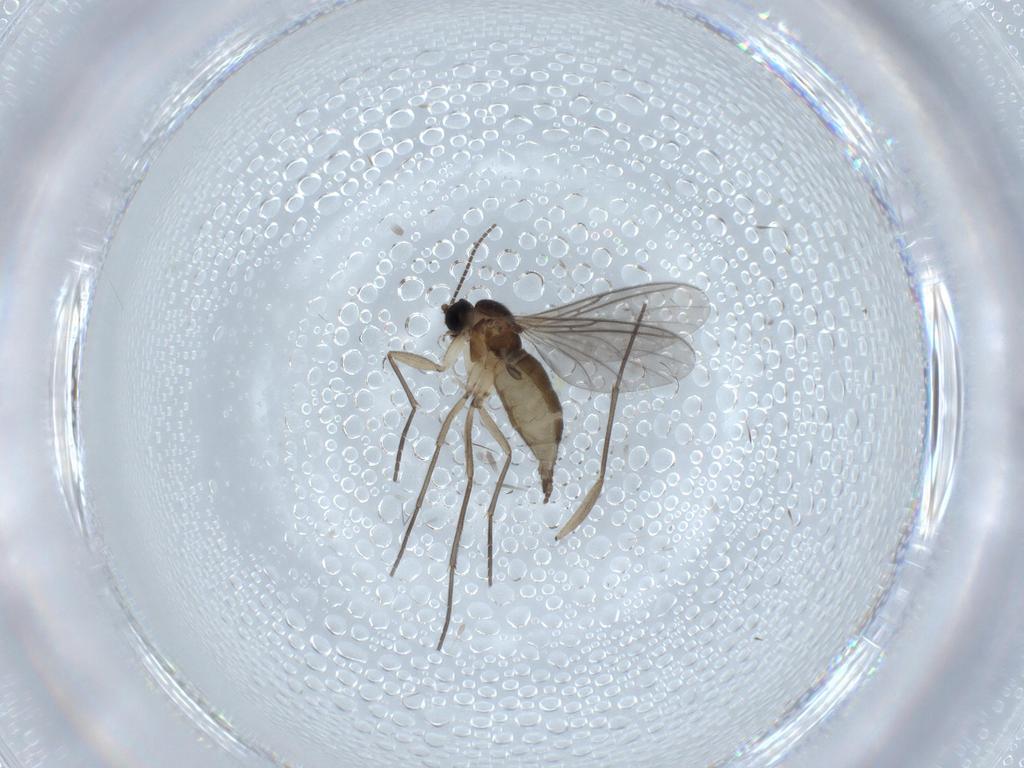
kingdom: Animalia
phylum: Arthropoda
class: Insecta
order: Diptera
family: Sciaridae
